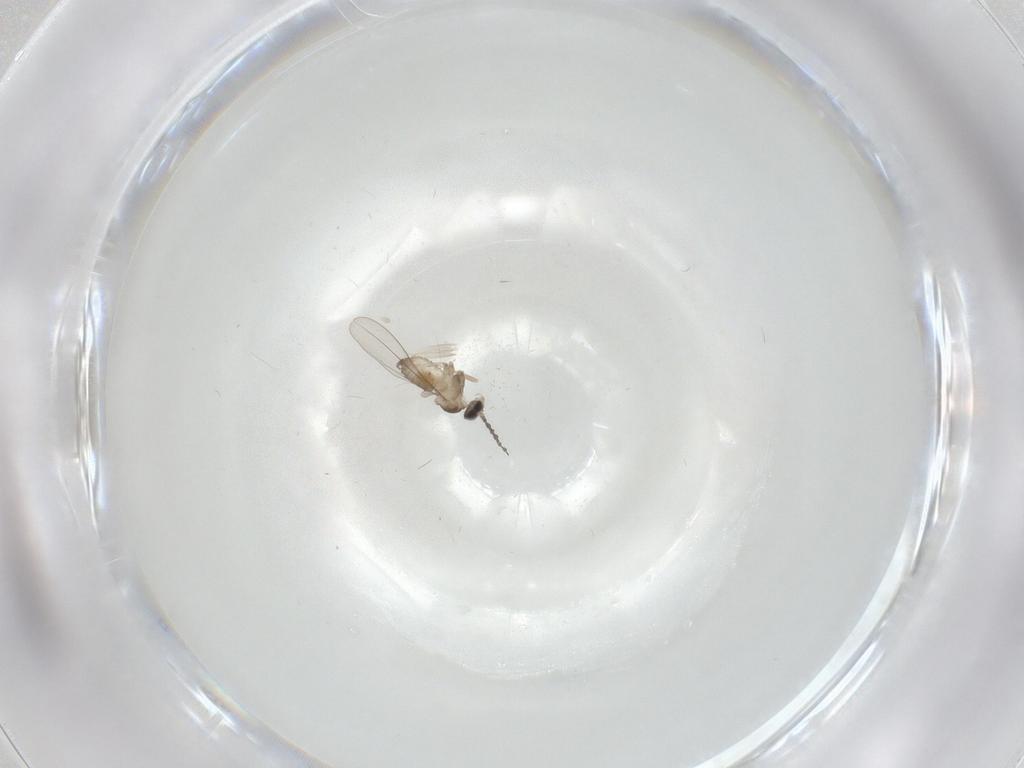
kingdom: Animalia
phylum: Arthropoda
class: Insecta
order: Diptera
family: Cecidomyiidae
